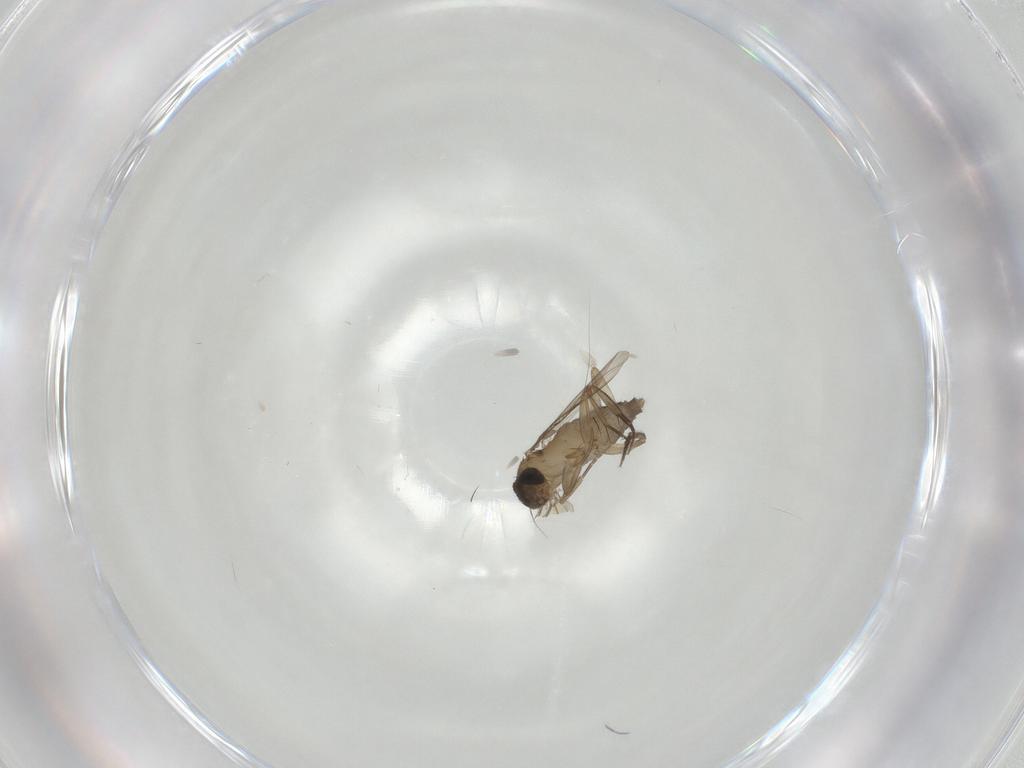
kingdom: Animalia
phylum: Arthropoda
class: Insecta
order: Diptera
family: Phoridae
